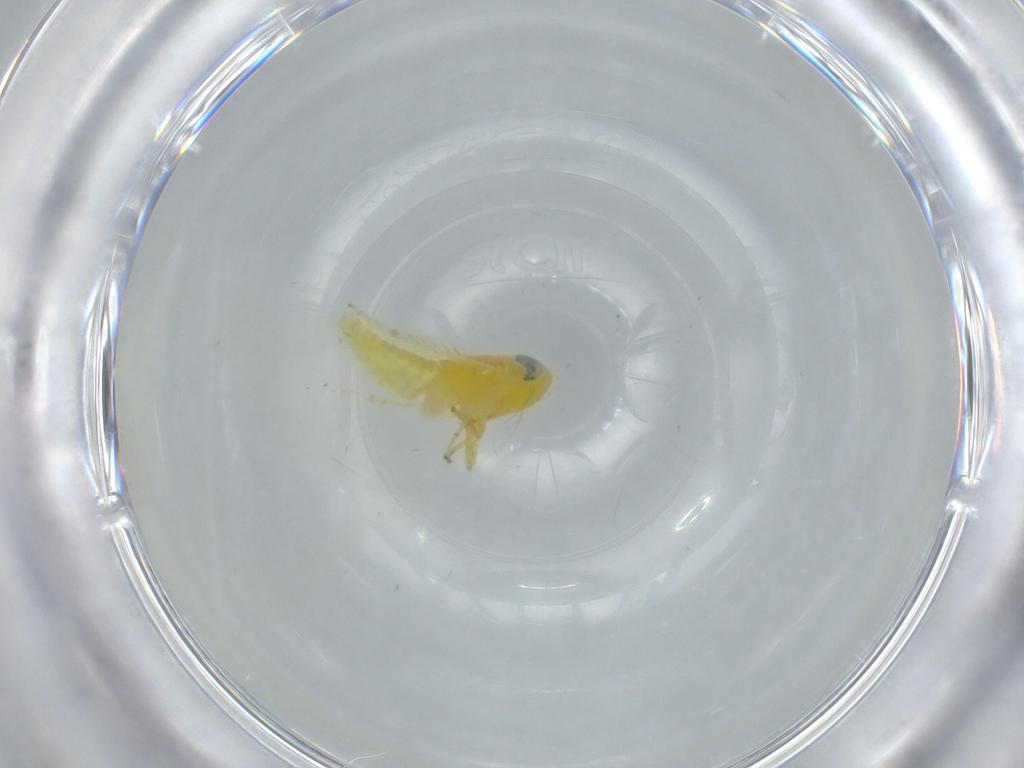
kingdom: Animalia
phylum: Arthropoda
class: Insecta
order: Hemiptera
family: Cicadellidae
